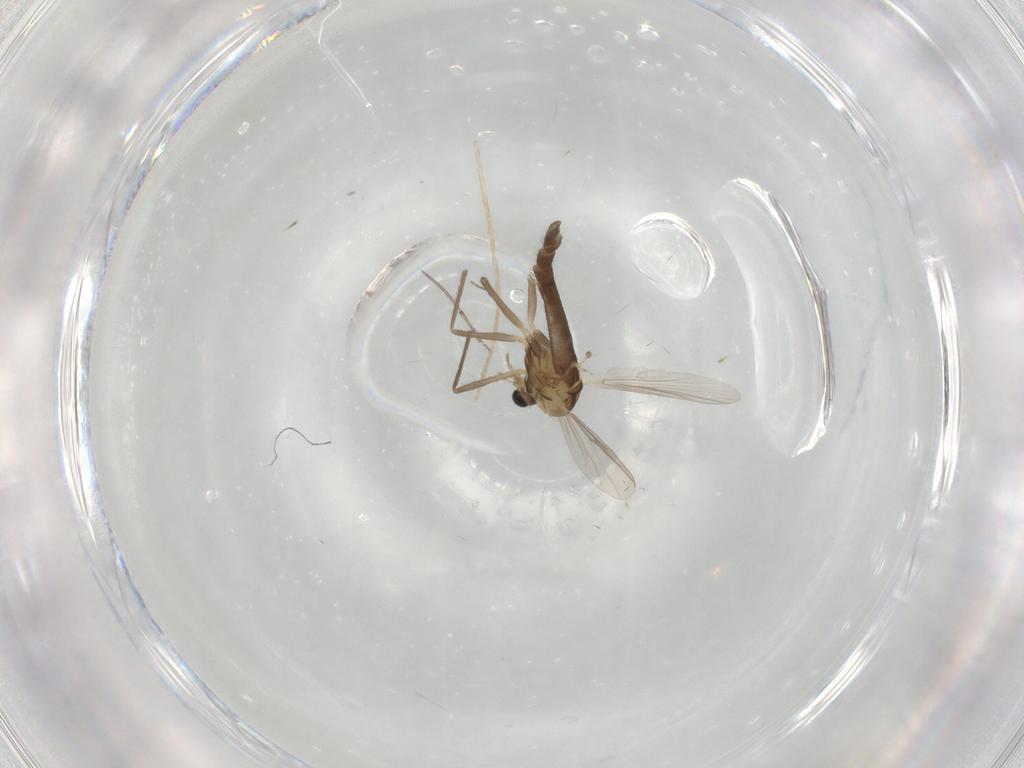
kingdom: Animalia
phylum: Arthropoda
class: Insecta
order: Diptera
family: Chironomidae
